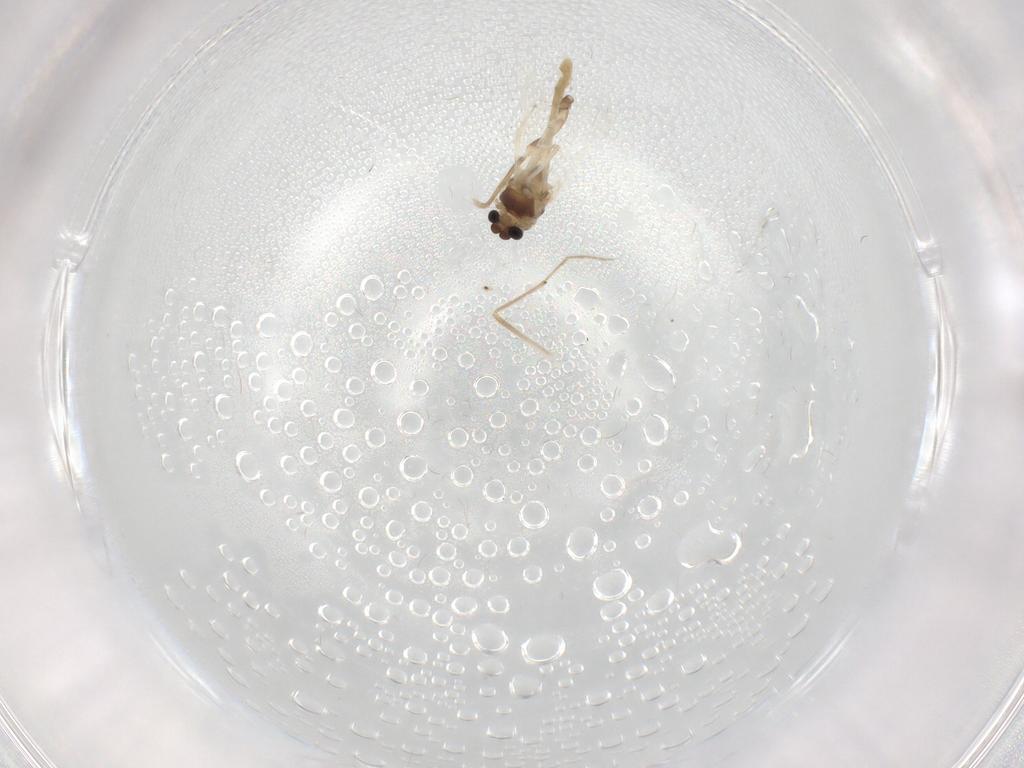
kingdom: Animalia
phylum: Arthropoda
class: Insecta
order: Diptera
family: Chironomidae
